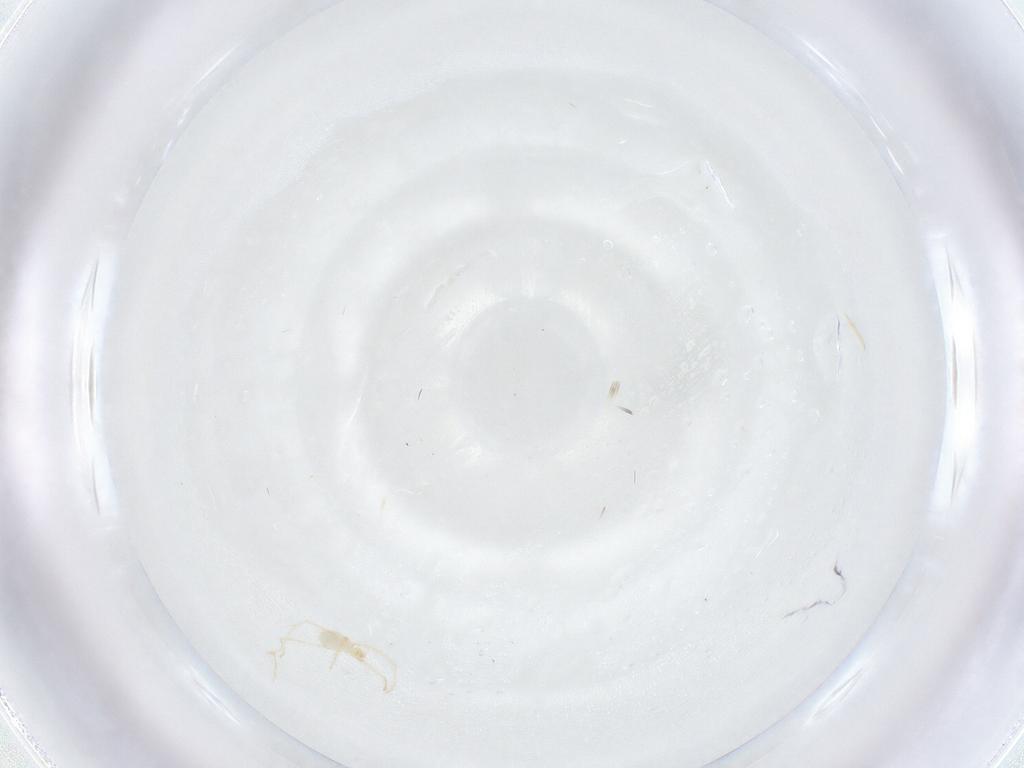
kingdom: Animalia
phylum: Arthropoda
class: Arachnida
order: Trombidiformes
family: Erythraeidae
